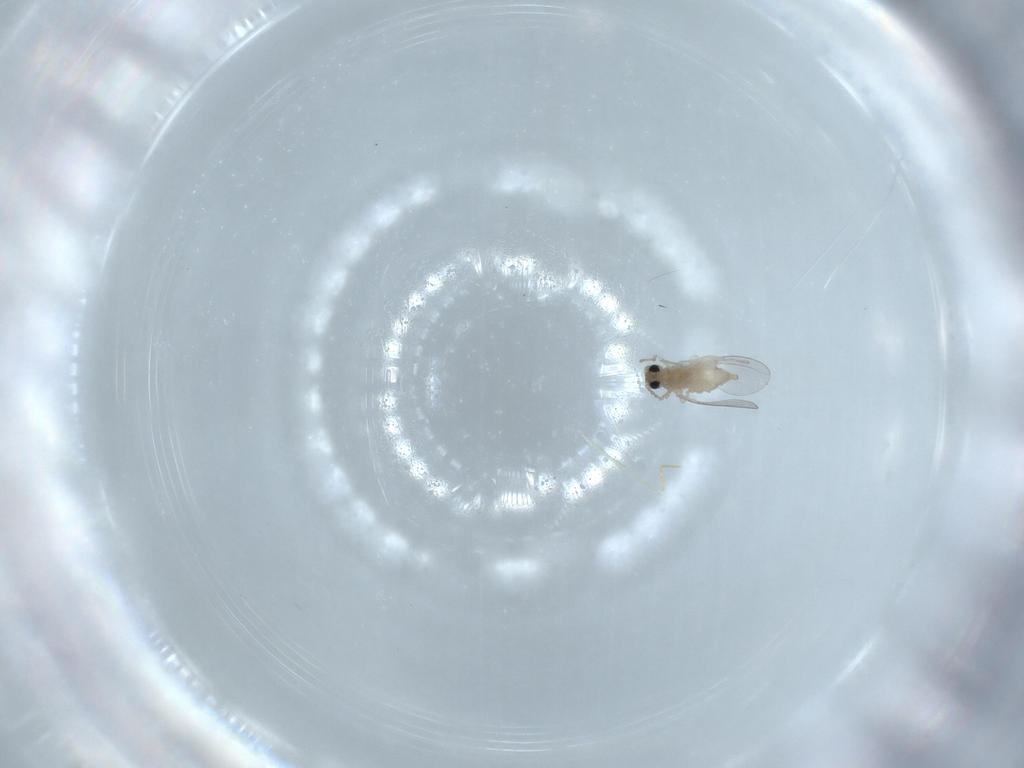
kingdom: Animalia
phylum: Arthropoda
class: Insecta
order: Diptera
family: Cecidomyiidae
